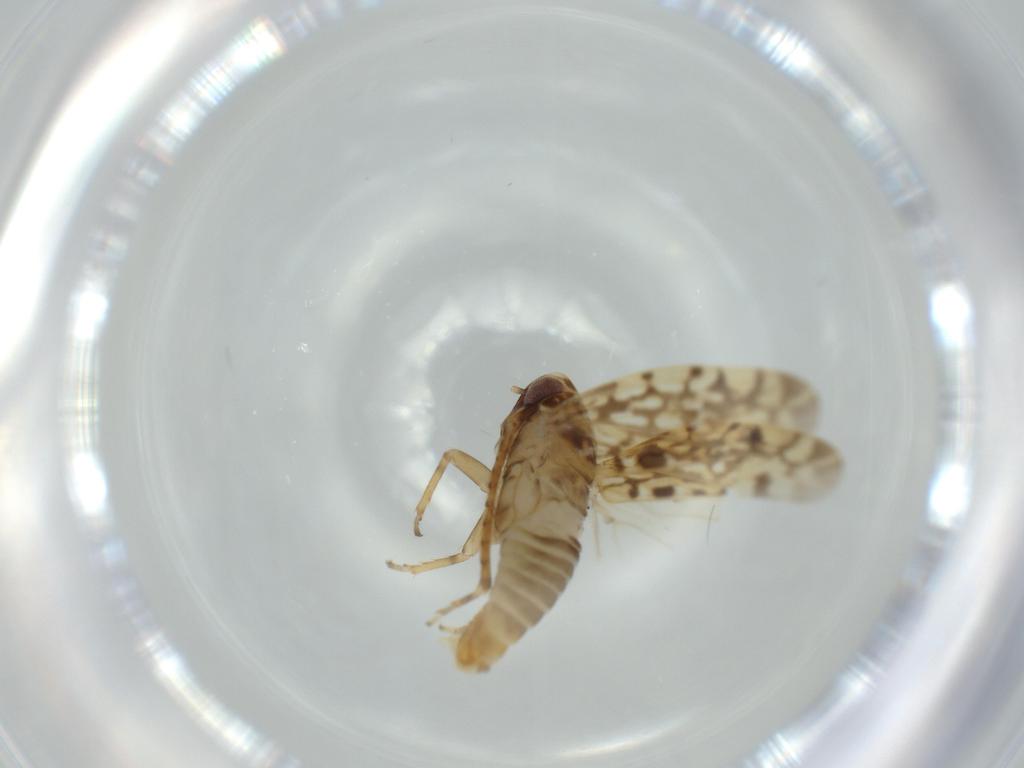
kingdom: Animalia
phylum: Arthropoda
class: Insecta
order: Hemiptera
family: Cicadellidae
